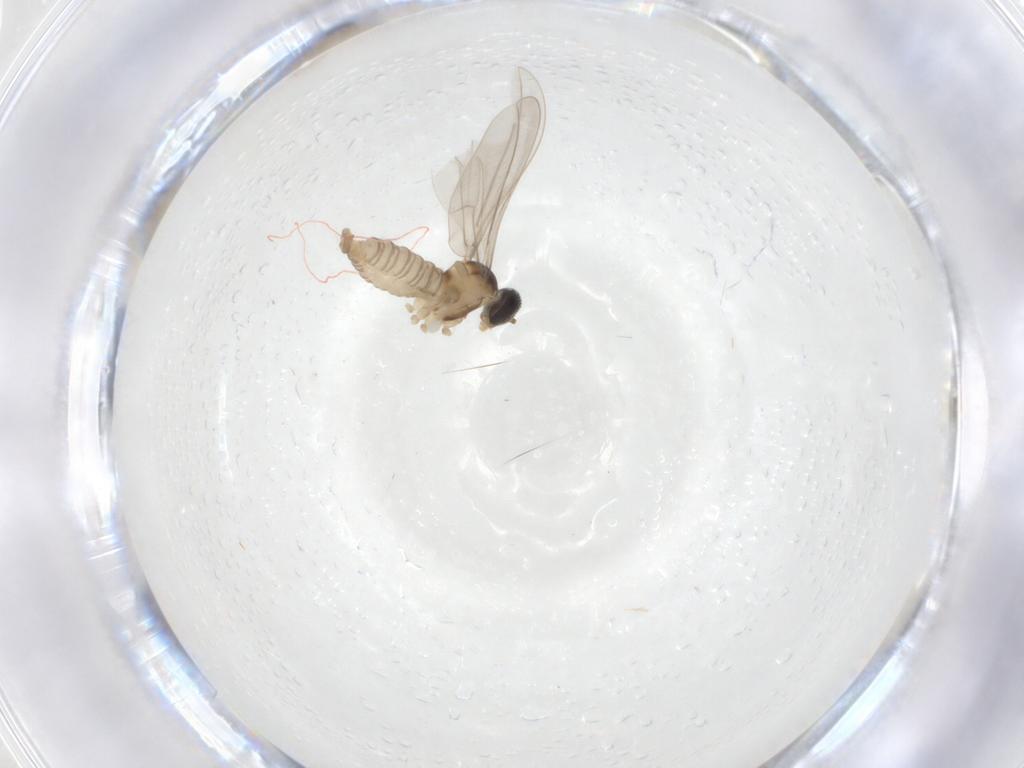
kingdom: Animalia
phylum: Arthropoda
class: Insecta
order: Diptera
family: Cecidomyiidae
